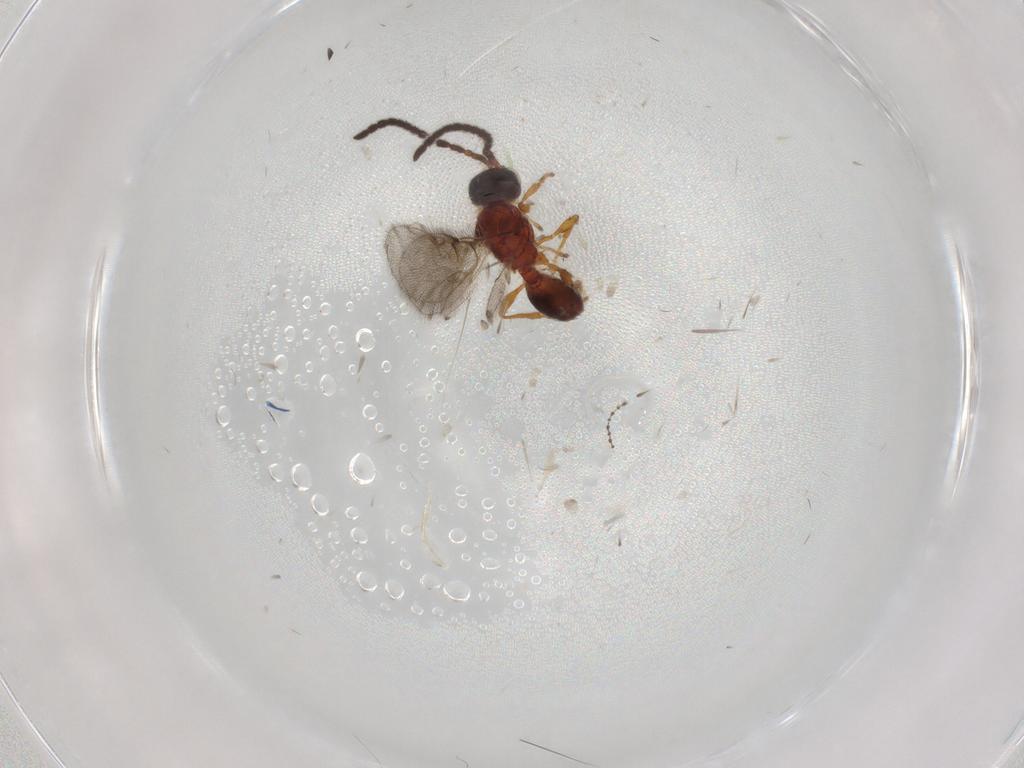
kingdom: Animalia
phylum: Arthropoda
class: Insecta
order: Hymenoptera
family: Diapriidae
